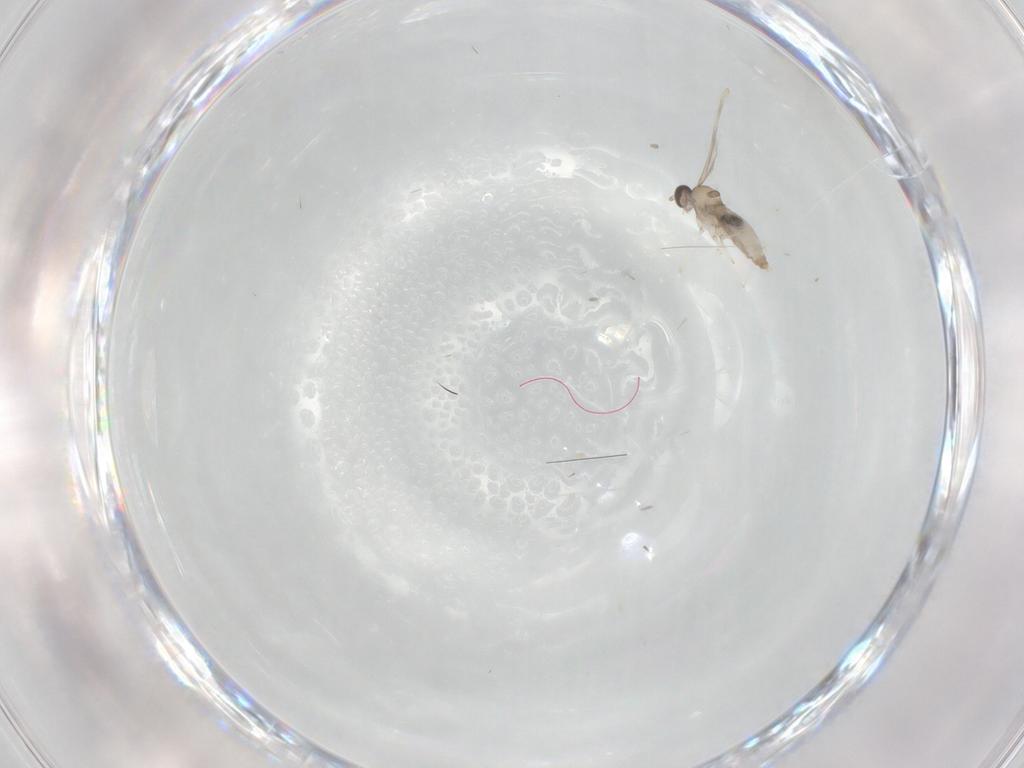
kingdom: Animalia
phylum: Arthropoda
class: Insecta
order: Diptera
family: Cecidomyiidae
